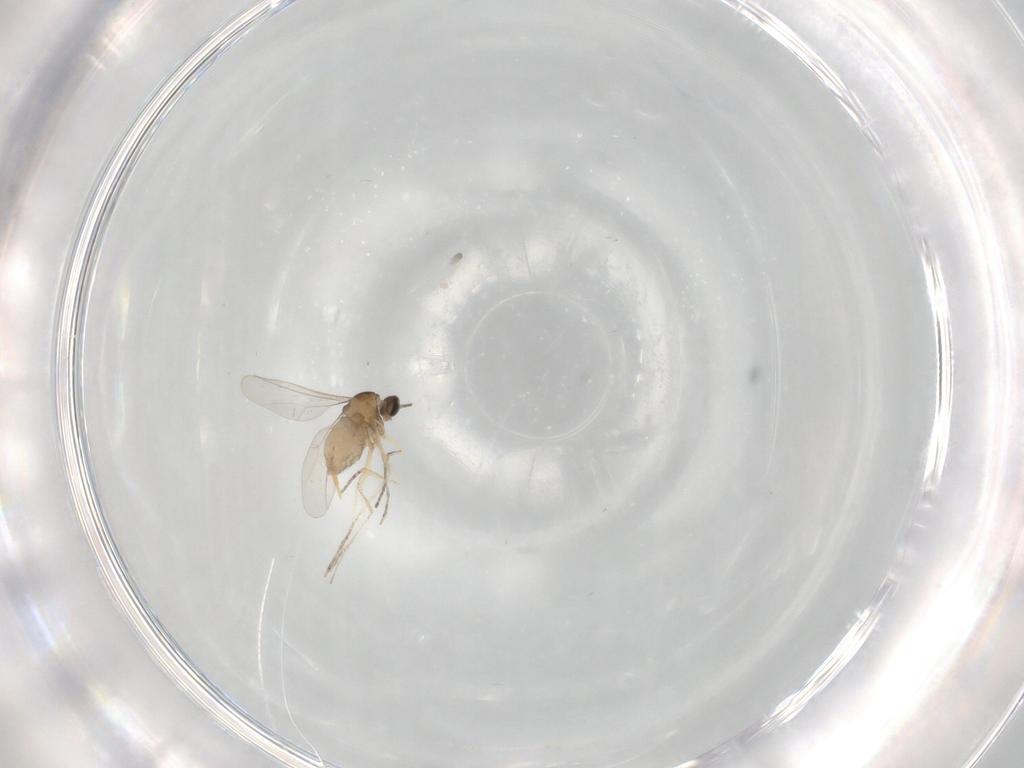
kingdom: Animalia
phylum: Arthropoda
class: Insecta
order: Diptera
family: Cecidomyiidae
